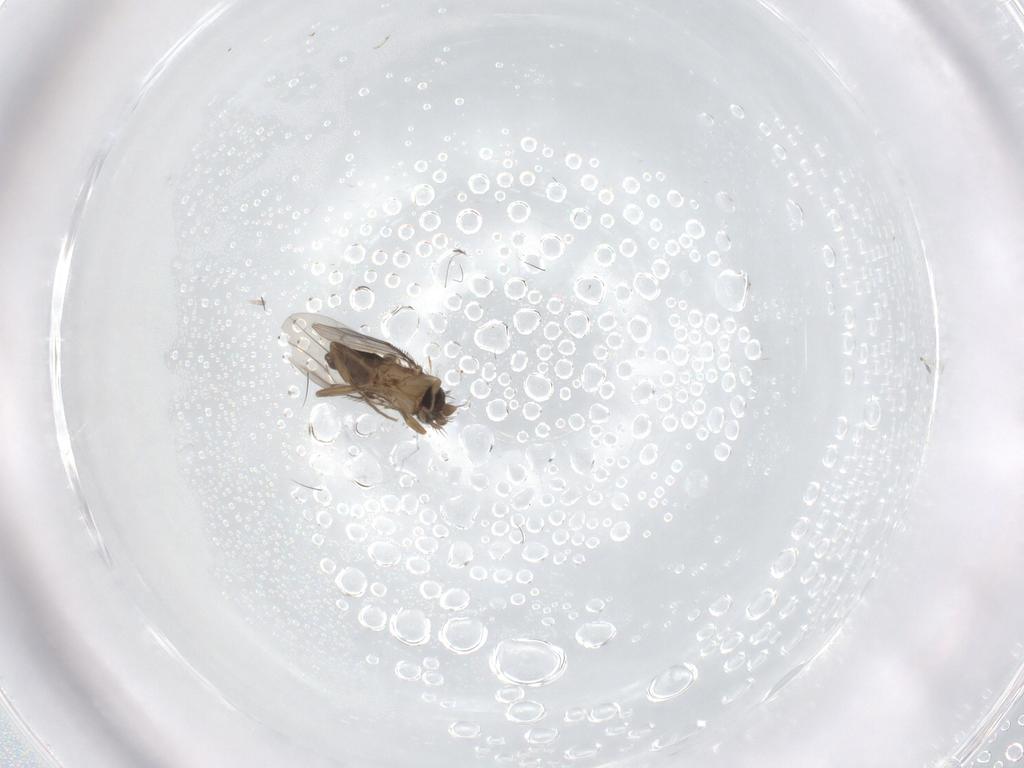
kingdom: Animalia
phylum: Arthropoda
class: Insecta
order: Diptera
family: Phoridae
